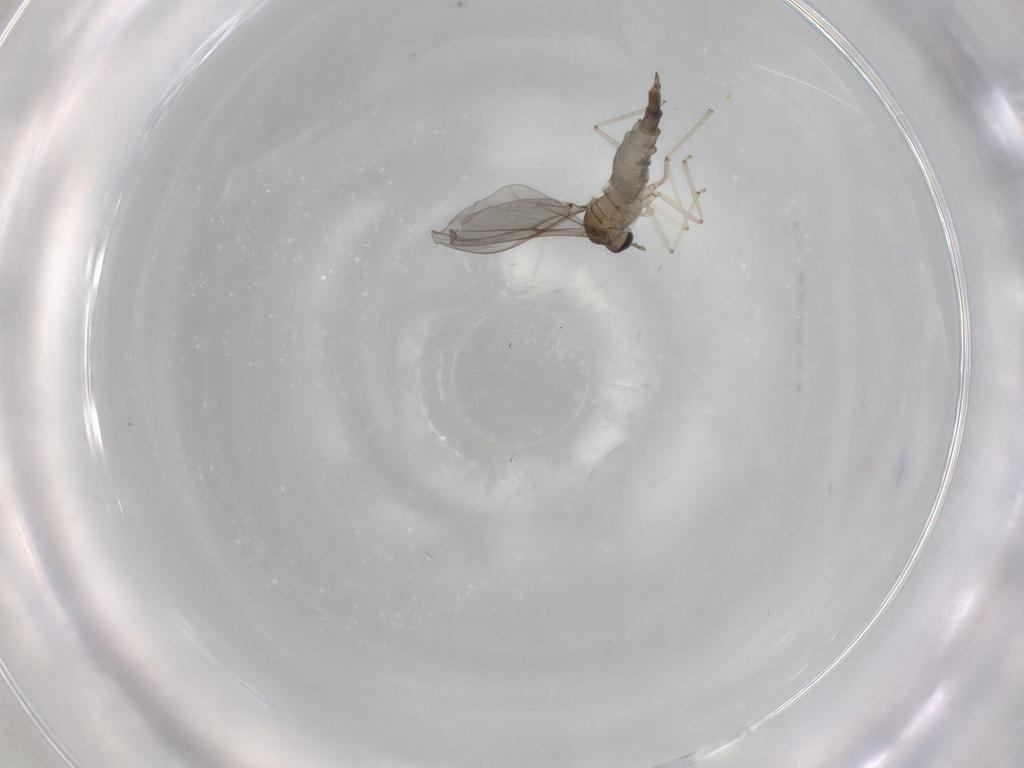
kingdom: Animalia
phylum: Arthropoda
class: Insecta
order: Diptera
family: Cecidomyiidae
